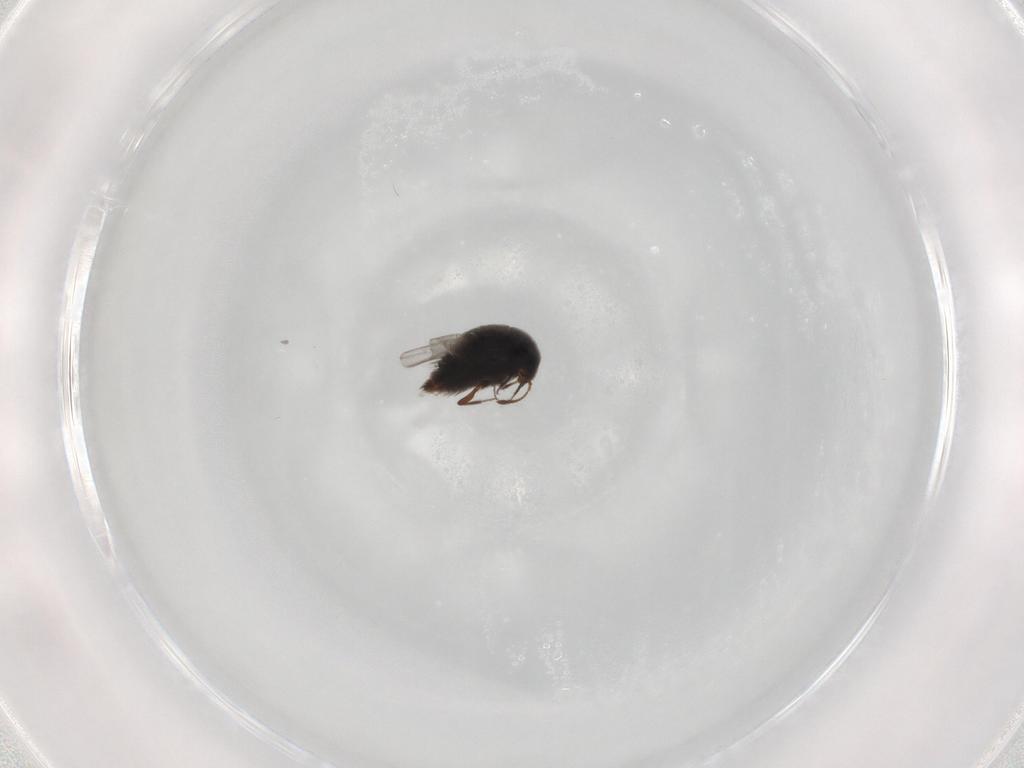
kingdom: Animalia
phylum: Arthropoda
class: Insecta
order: Coleoptera
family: Staphylinidae
